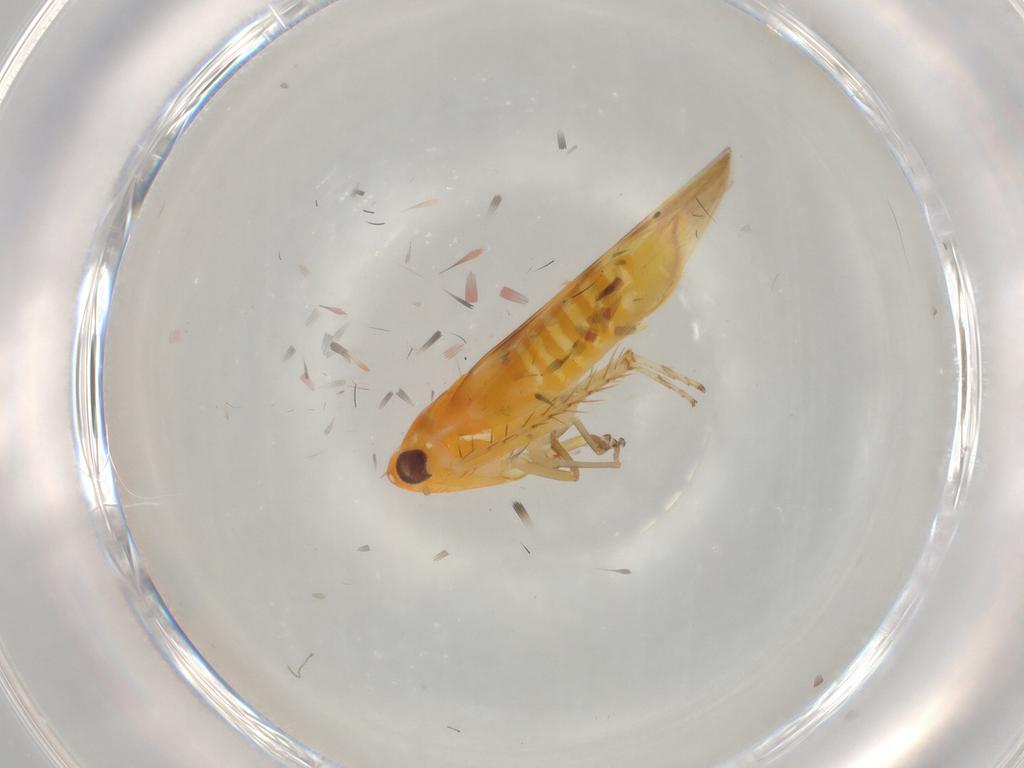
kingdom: Animalia
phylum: Arthropoda
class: Insecta
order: Hemiptera
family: Cicadellidae
